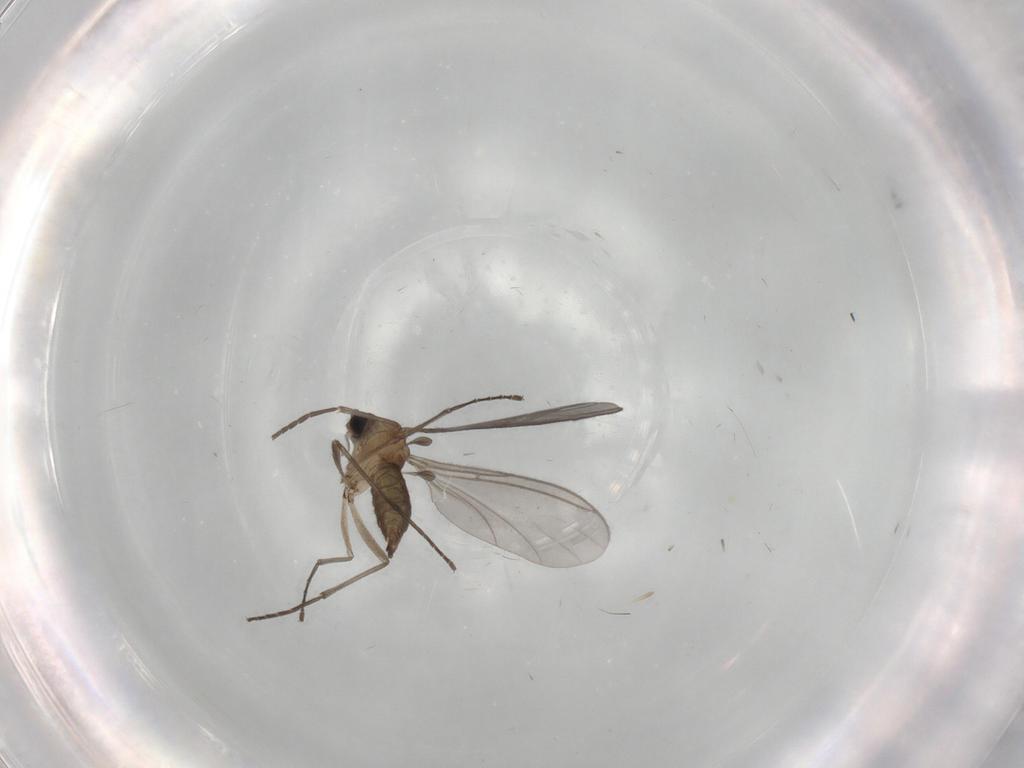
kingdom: Animalia
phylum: Arthropoda
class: Insecta
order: Diptera
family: Sciaridae
